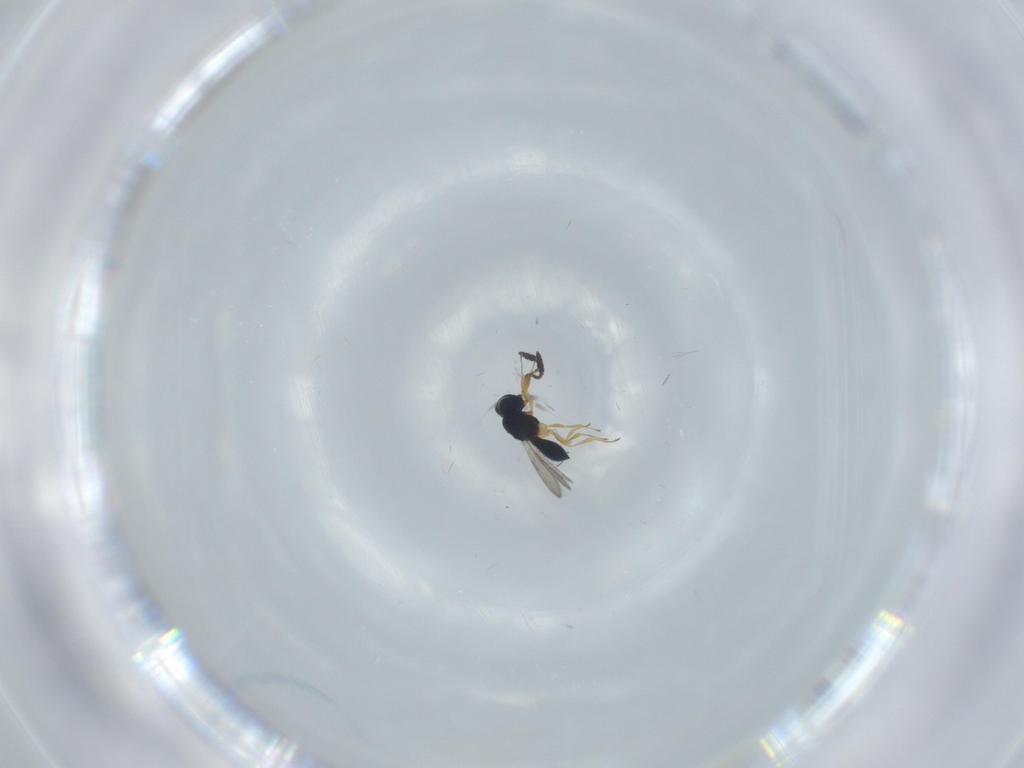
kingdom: Animalia
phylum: Arthropoda
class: Insecta
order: Hymenoptera
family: Scelionidae
